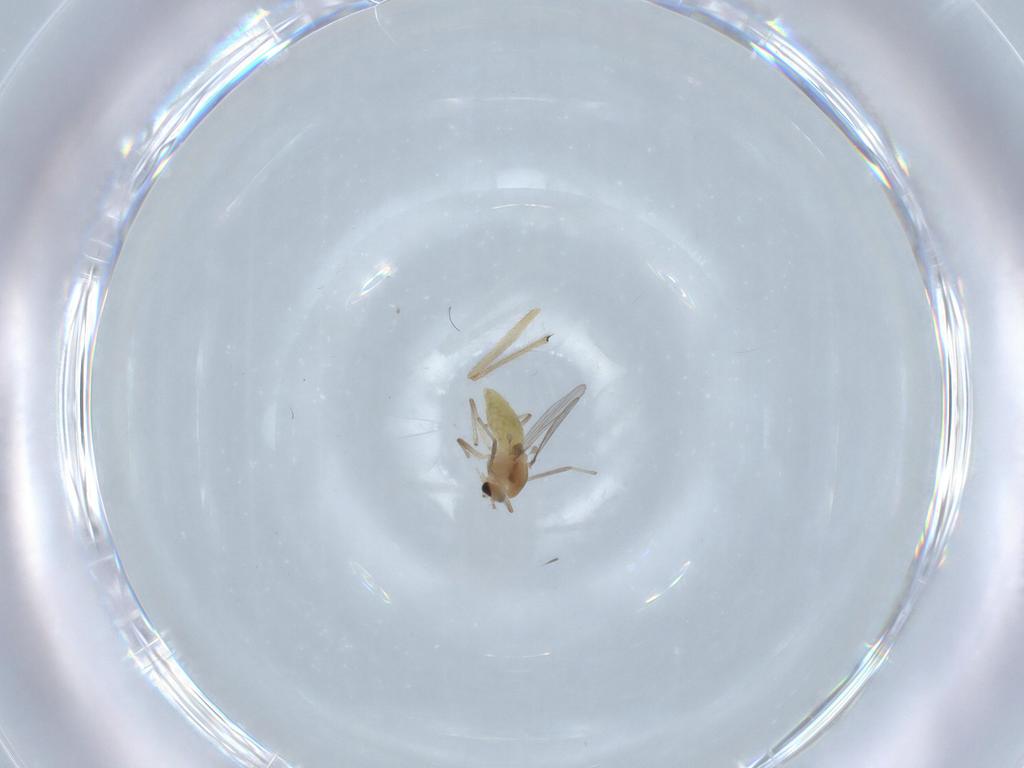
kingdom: Animalia
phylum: Arthropoda
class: Insecta
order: Diptera
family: Chironomidae
